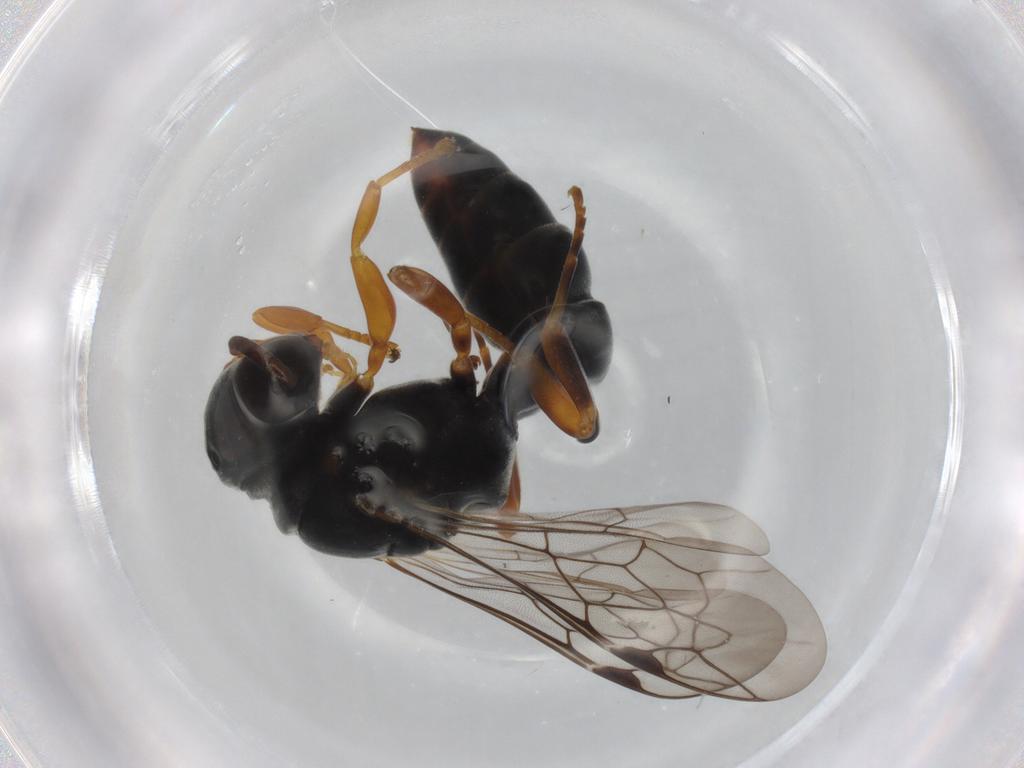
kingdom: Animalia
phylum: Arthropoda
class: Insecta
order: Hymenoptera
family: Crabronidae
